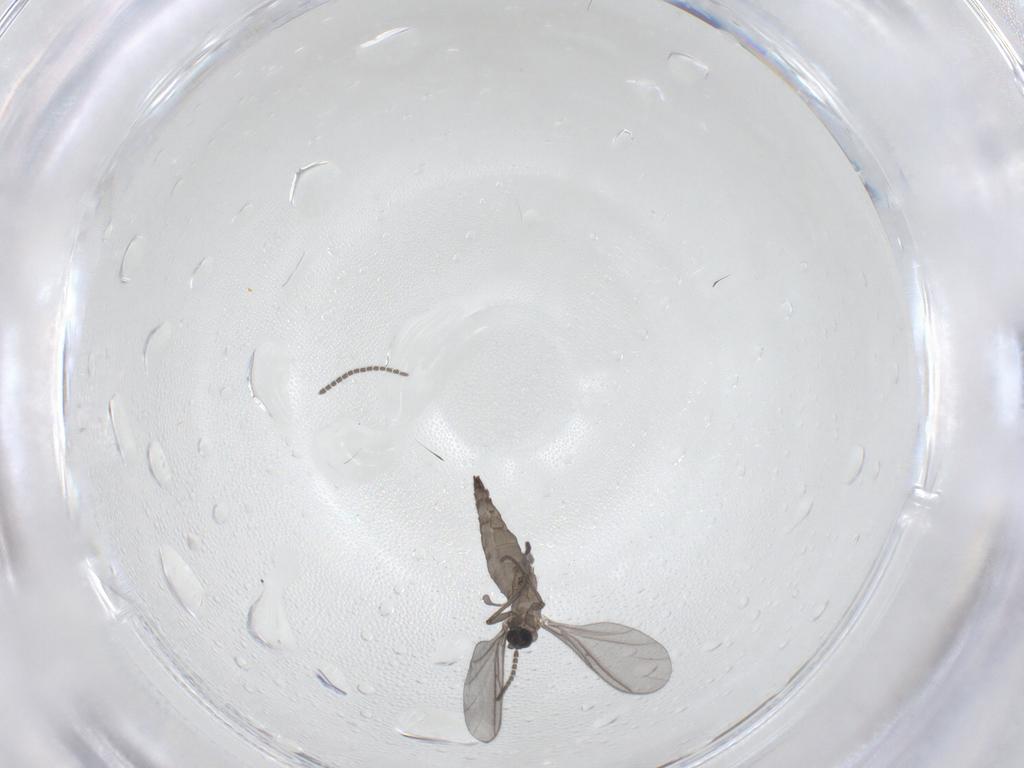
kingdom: Animalia
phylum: Arthropoda
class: Insecta
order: Diptera
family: Sciaridae
